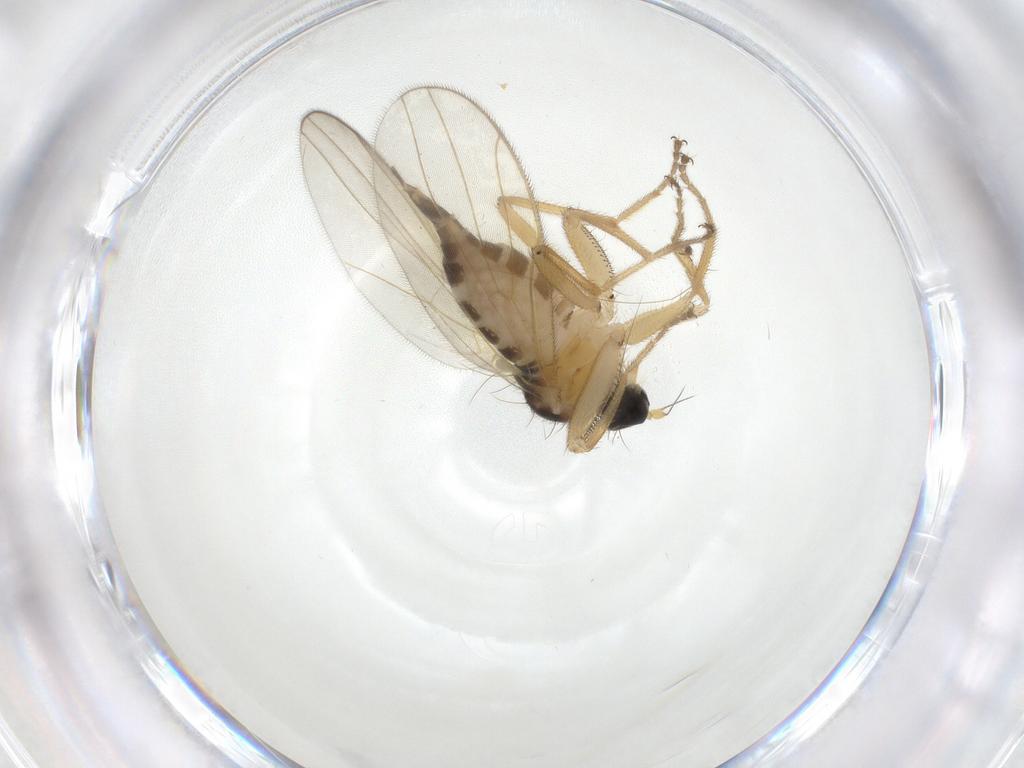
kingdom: Animalia
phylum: Arthropoda
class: Insecta
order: Diptera
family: Hybotidae
